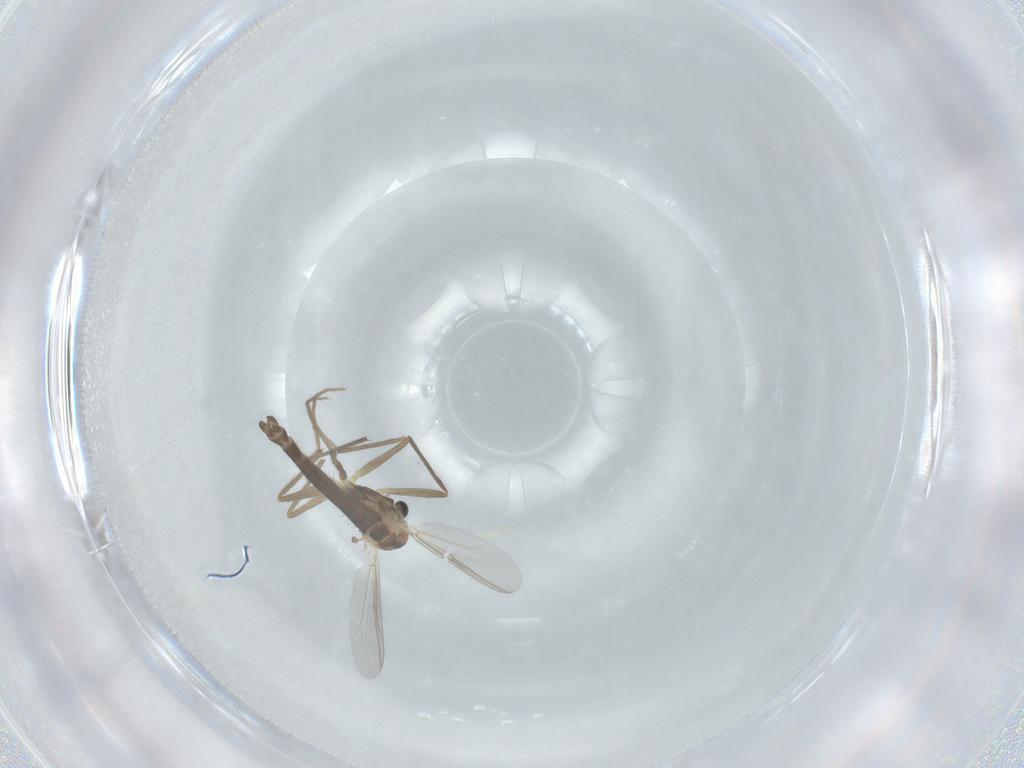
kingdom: Animalia
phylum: Arthropoda
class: Insecta
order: Diptera
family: Chironomidae
